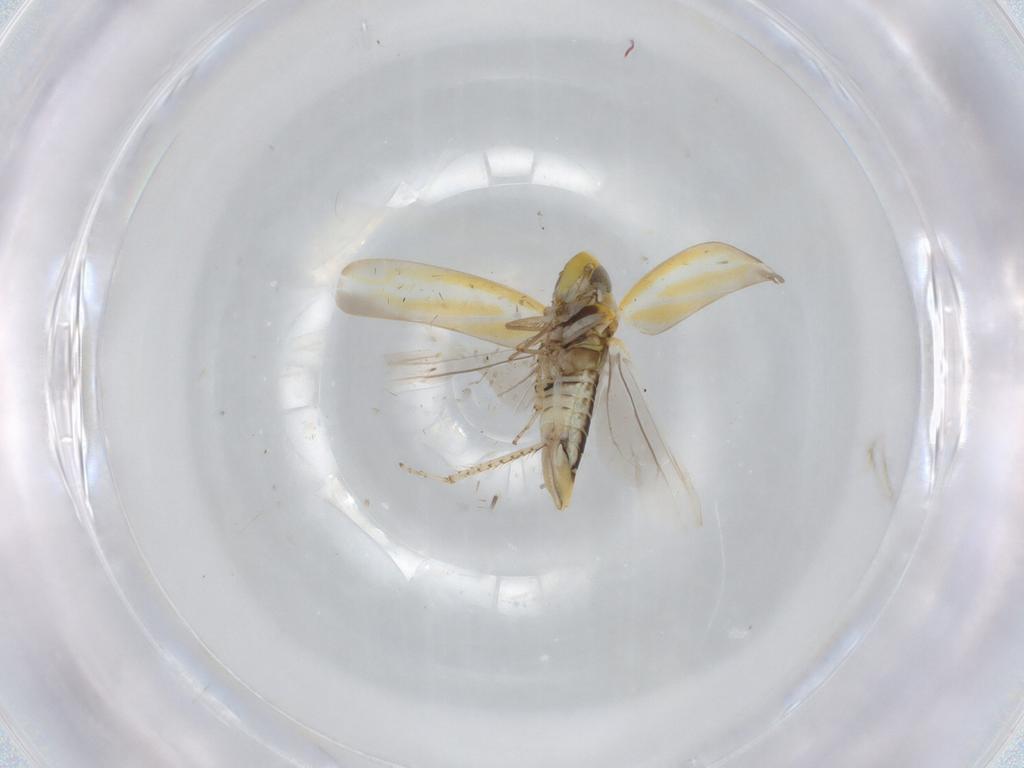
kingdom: Animalia
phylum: Arthropoda
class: Insecta
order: Hemiptera
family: Cicadellidae
